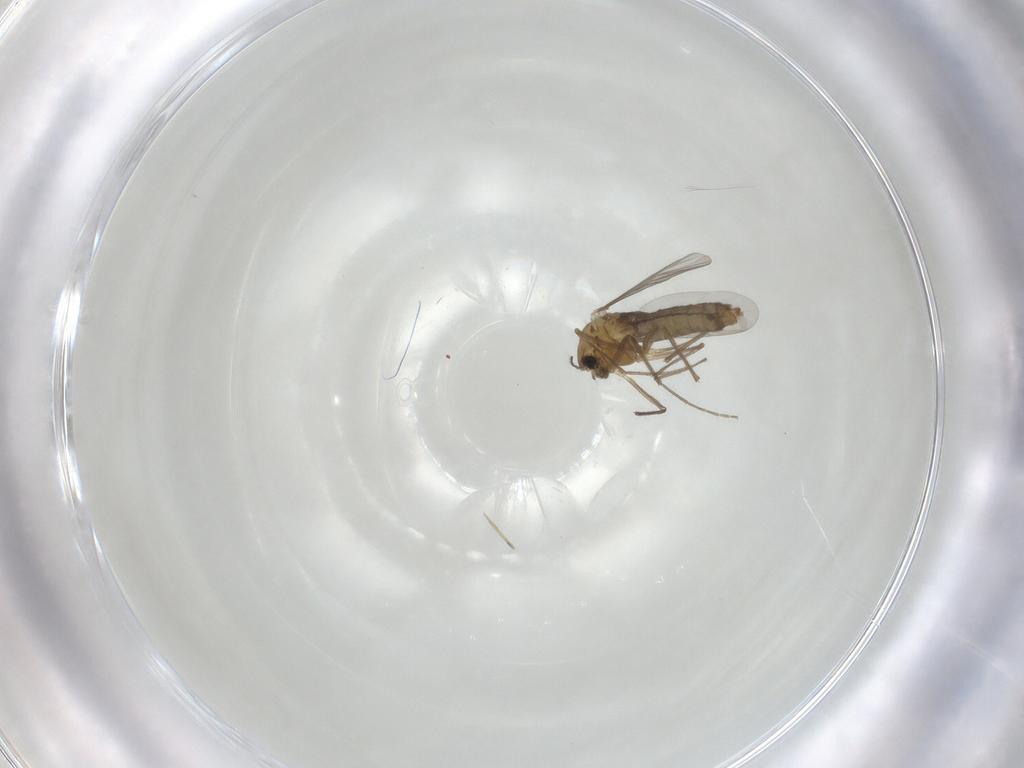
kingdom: Animalia
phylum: Arthropoda
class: Insecta
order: Diptera
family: Chironomidae
